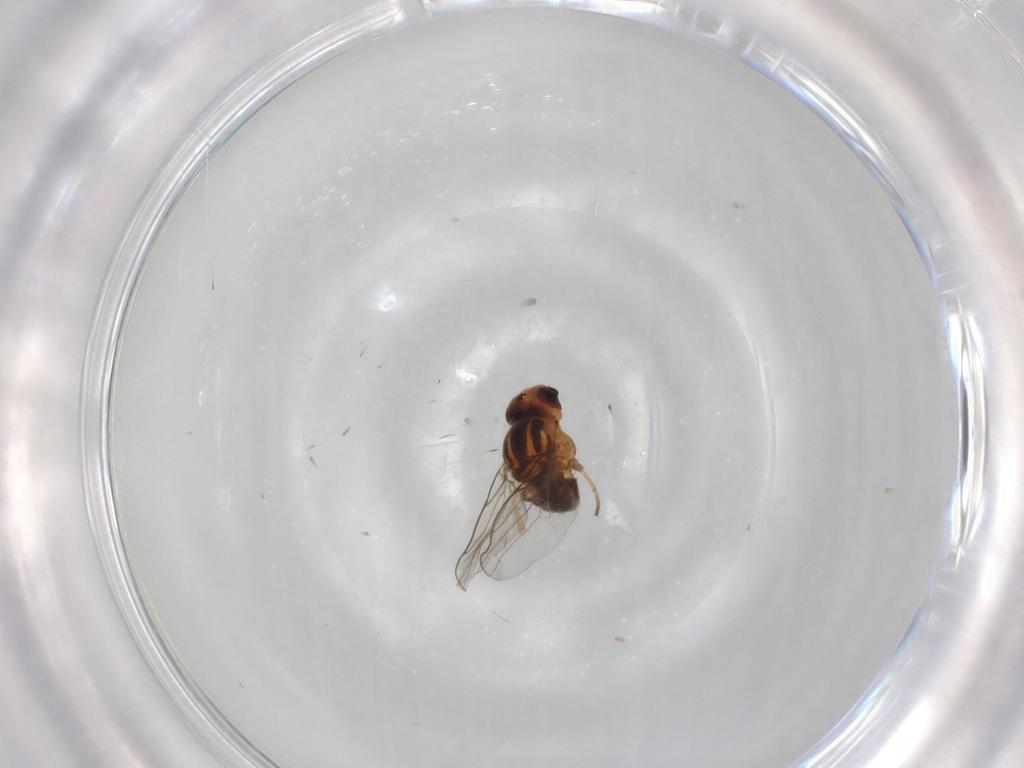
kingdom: Animalia
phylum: Arthropoda
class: Insecta
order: Diptera
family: Chloropidae
